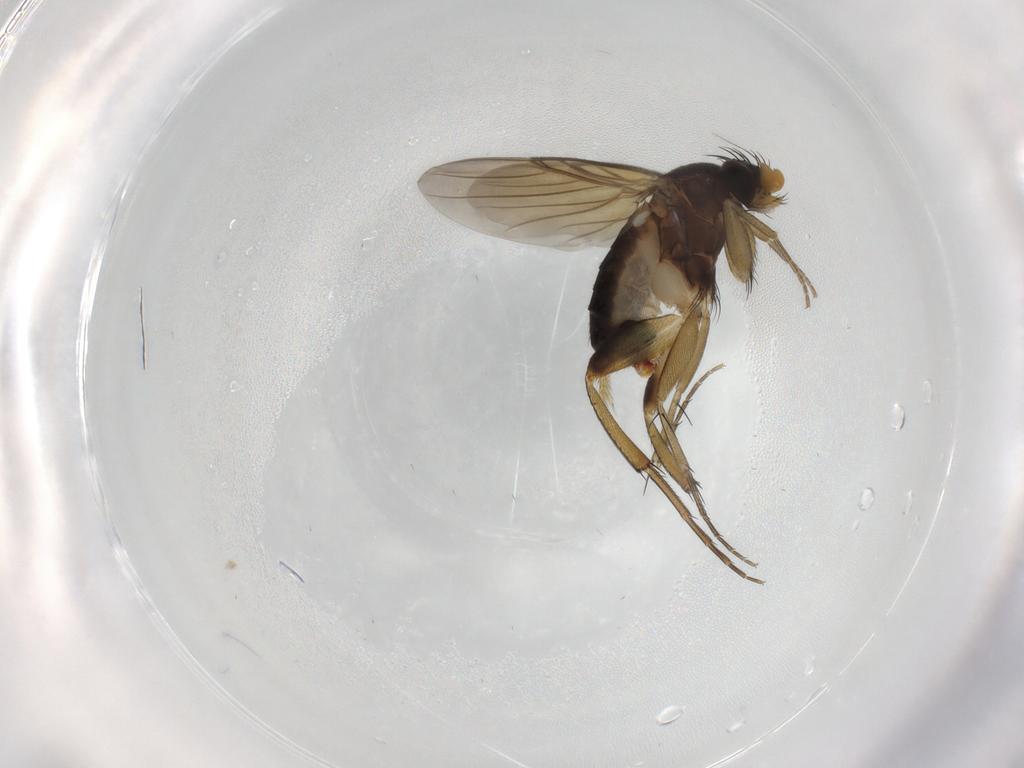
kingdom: Animalia
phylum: Arthropoda
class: Insecta
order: Diptera
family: Phoridae
